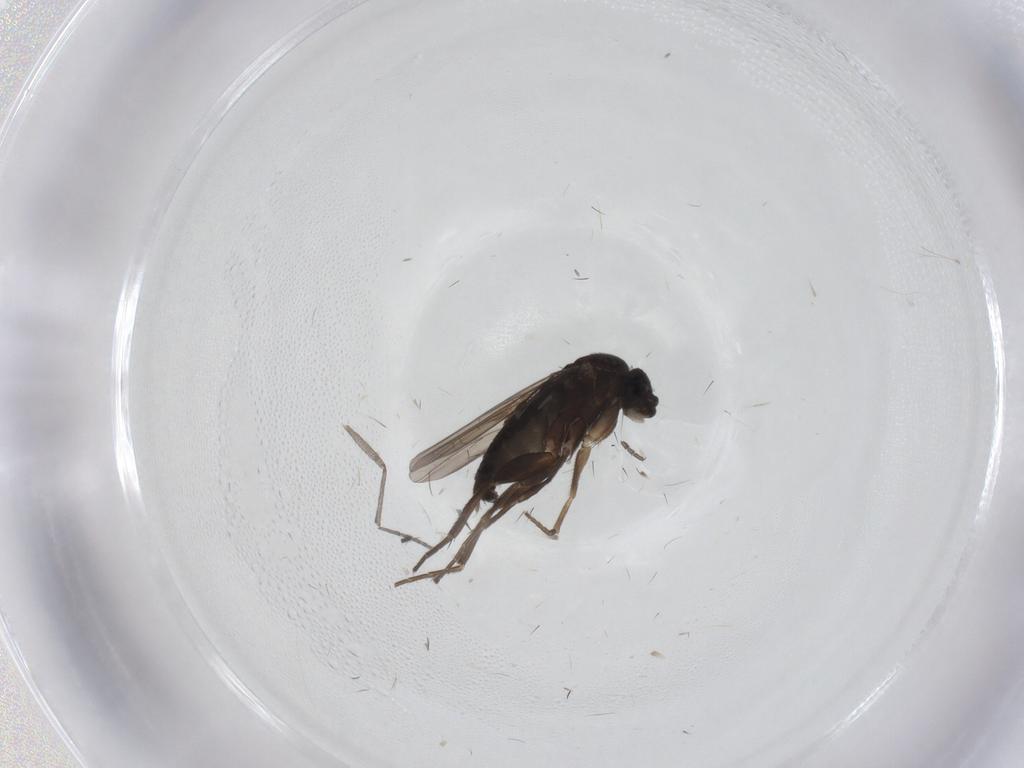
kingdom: Animalia
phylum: Arthropoda
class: Insecta
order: Diptera
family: Phoridae
